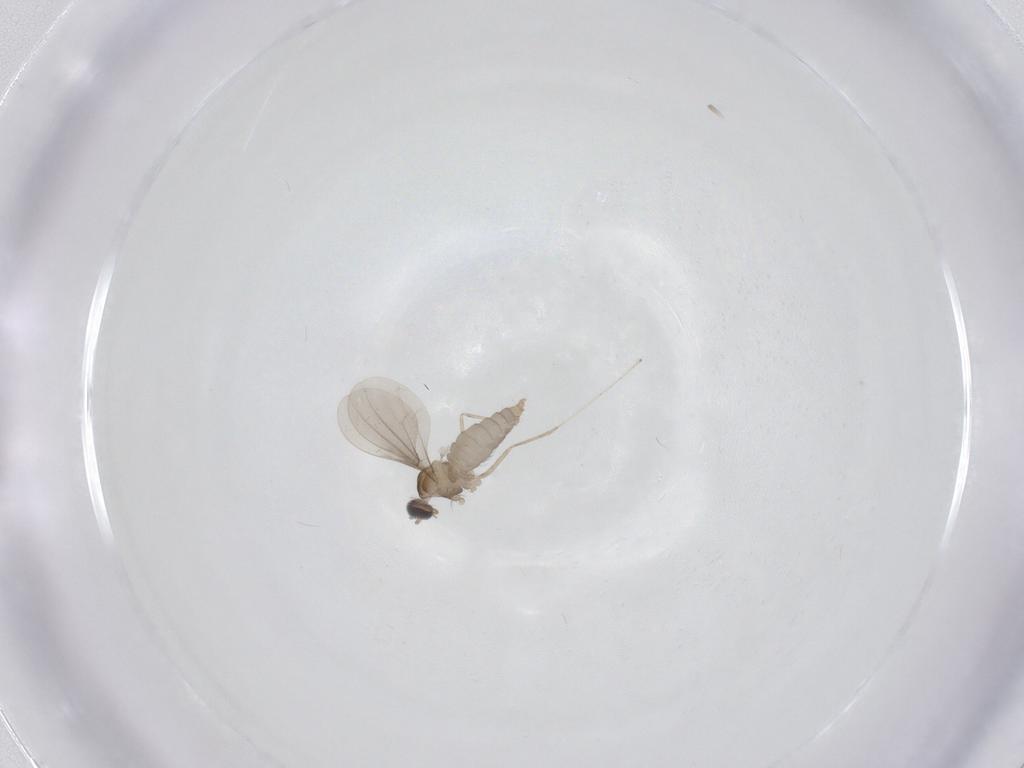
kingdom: Animalia
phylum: Arthropoda
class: Insecta
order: Diptera
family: Cecidomyiidae
